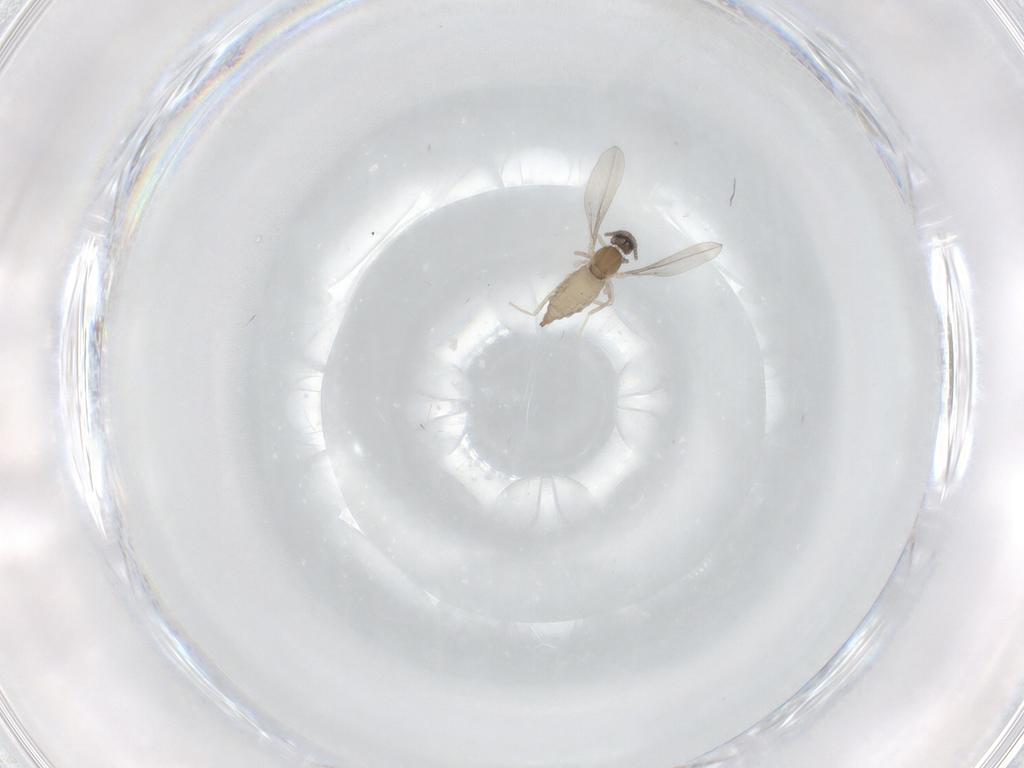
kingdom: Animalia
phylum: Arthropoda
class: Insecta
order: Diptera
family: Cecidomyiidae
